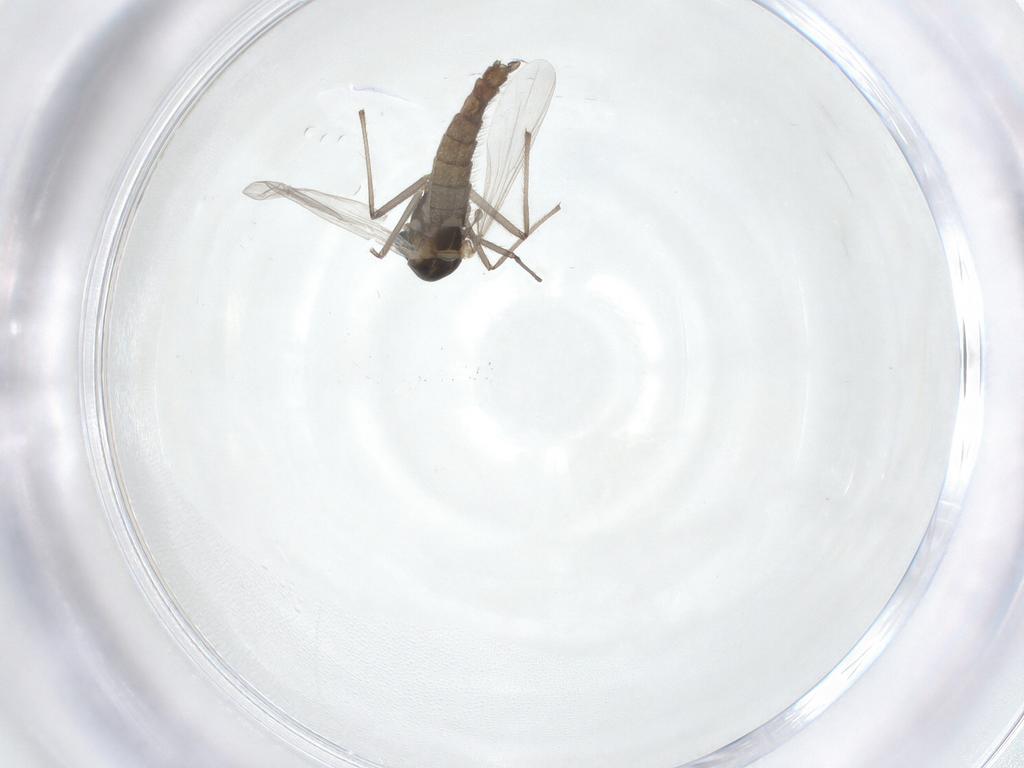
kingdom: Animalia
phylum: Arthropoda
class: Insecta
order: Diptera
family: Chironomidae
